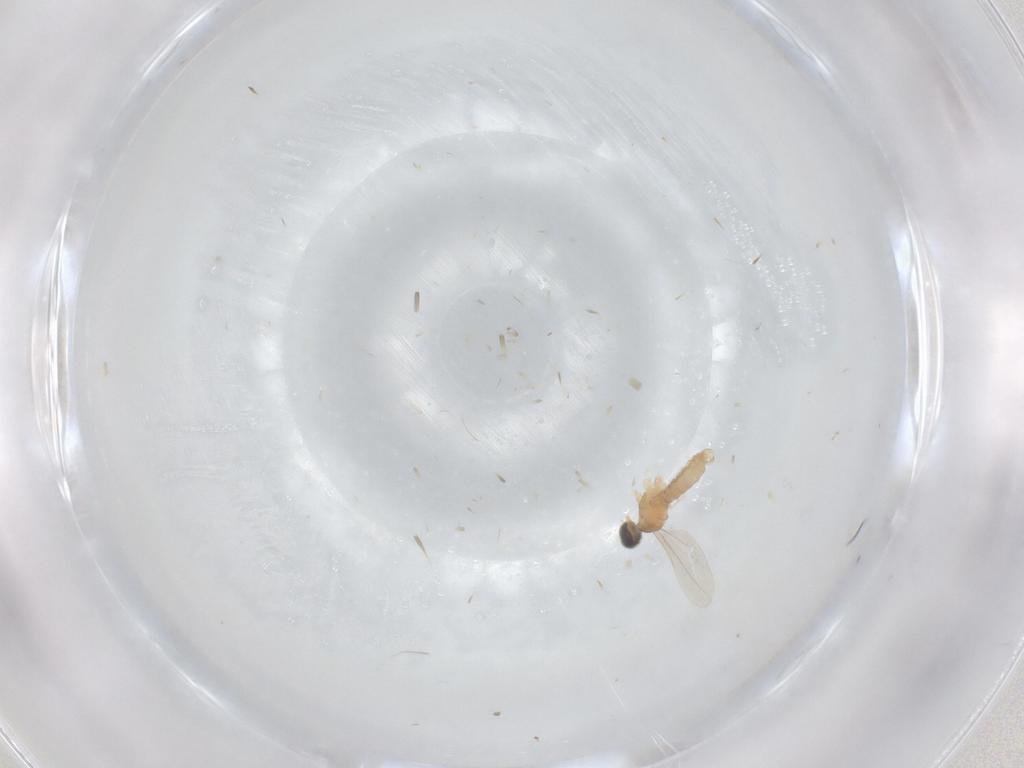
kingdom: Animalia
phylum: Arthropoda
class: Insecta
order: Diptera
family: Cecidomyiidae
